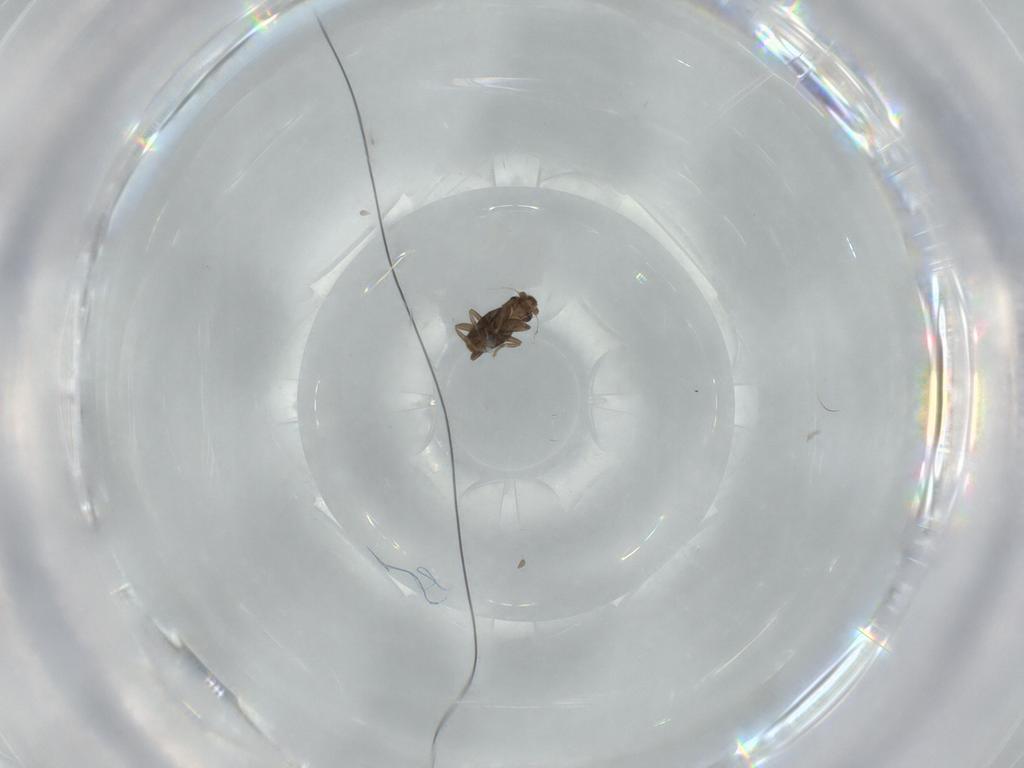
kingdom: Animalia
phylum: Arthropoda
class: Insecta
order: Diptera
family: Phoridae
